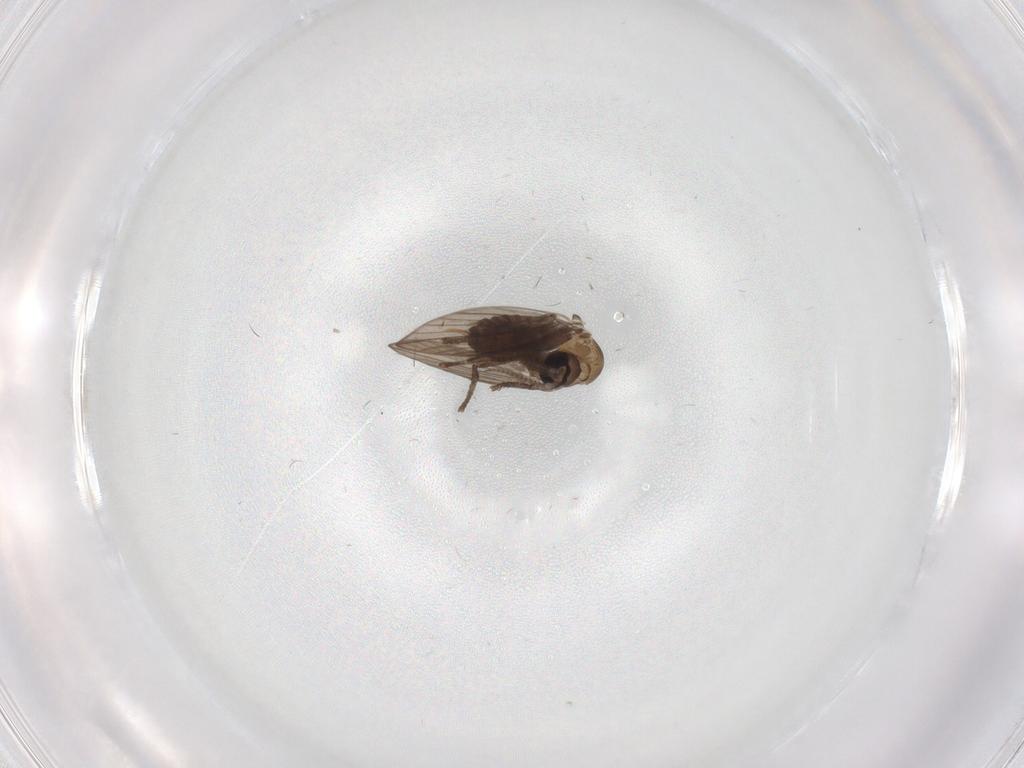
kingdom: Animalia
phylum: Arthropoda
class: Insecta
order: Diptera
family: Psychodidae
